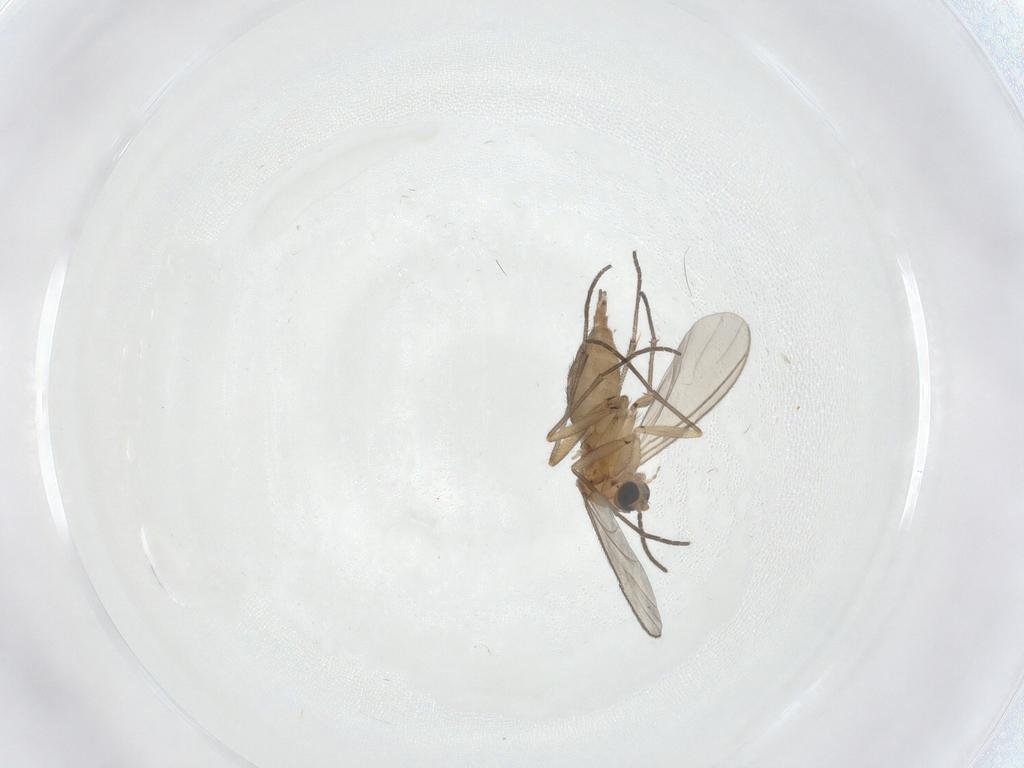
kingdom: Animalia
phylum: Arthropoda
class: Insecta
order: Diptera
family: Sciaridae
